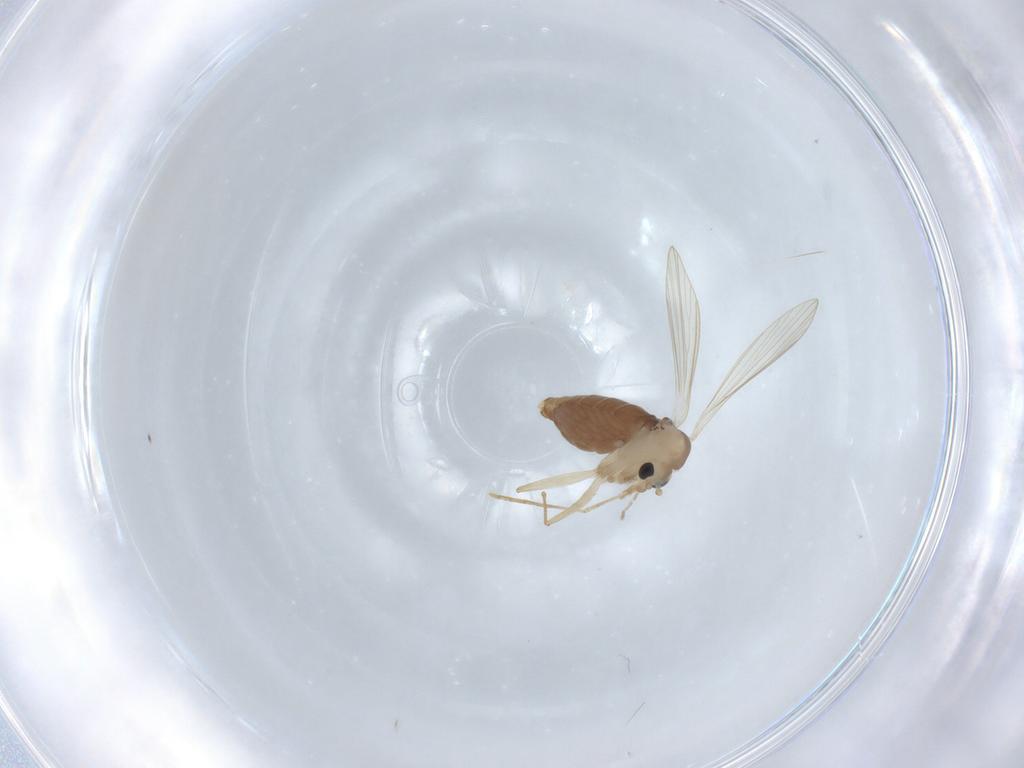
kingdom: Animalia
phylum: Arthropoda
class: Insecta
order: Diptera
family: Psychodidae
